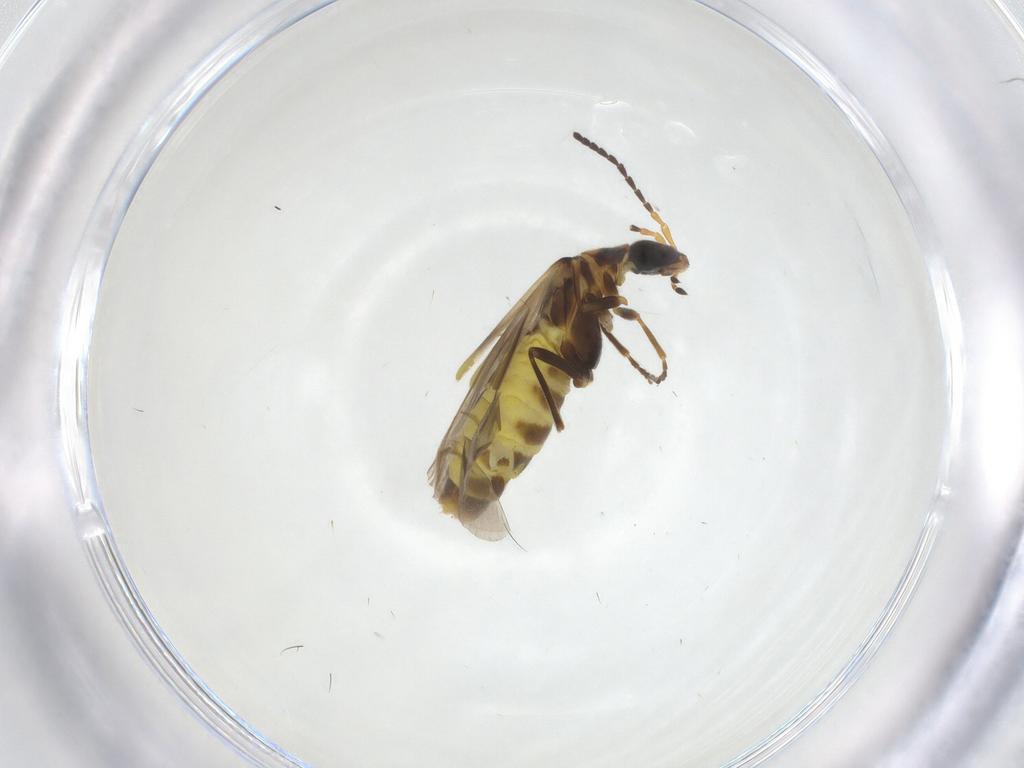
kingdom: Animalia
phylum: Arthropoda
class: Insecta
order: Coleoptera
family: Cantharidae
